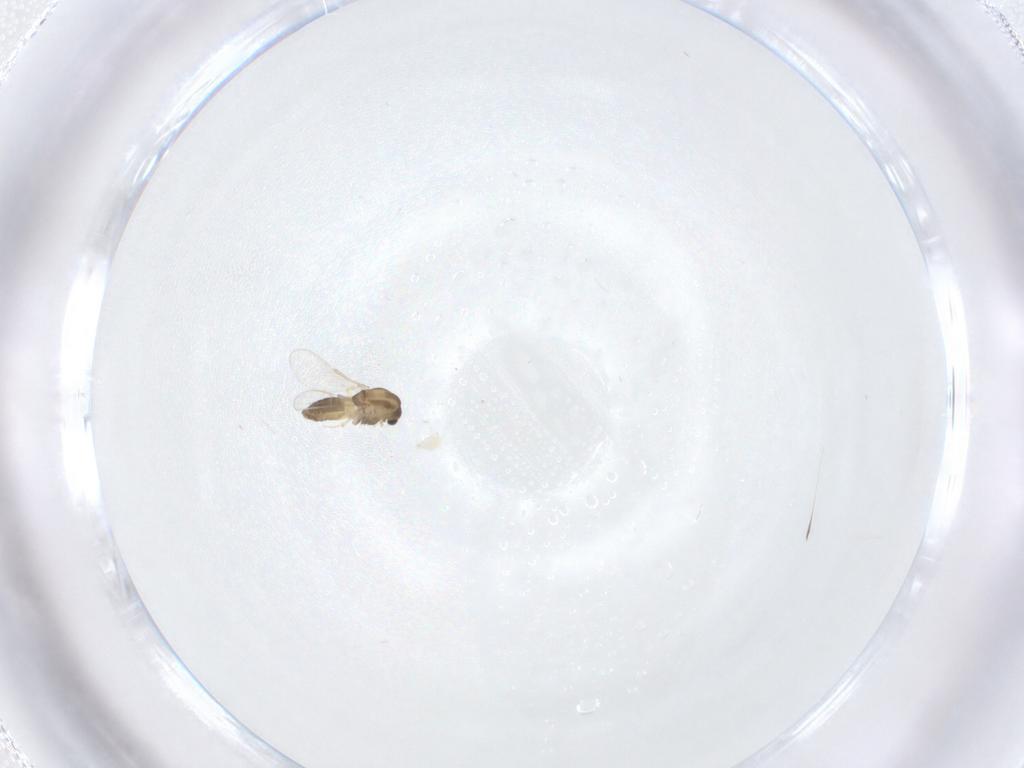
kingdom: Animalia
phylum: Arthropoda
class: Insecta
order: Diptera
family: Chironomidae
